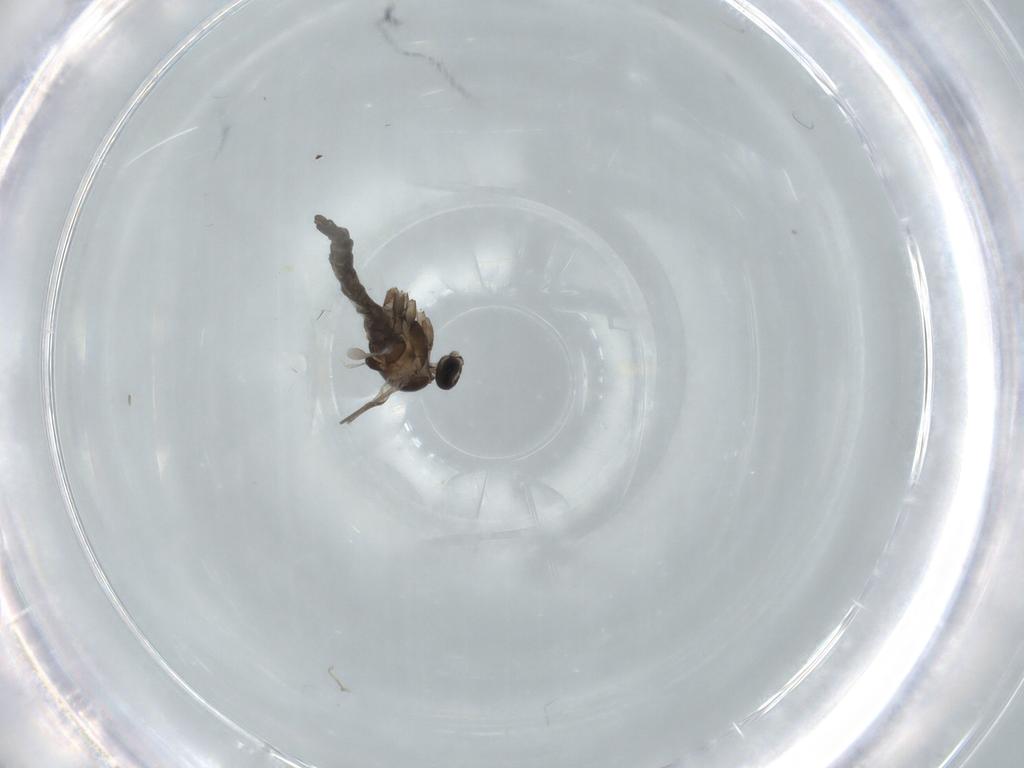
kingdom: Animalia
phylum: Arthropoda
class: Insecta
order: Diptera
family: Cecidomyiidae
